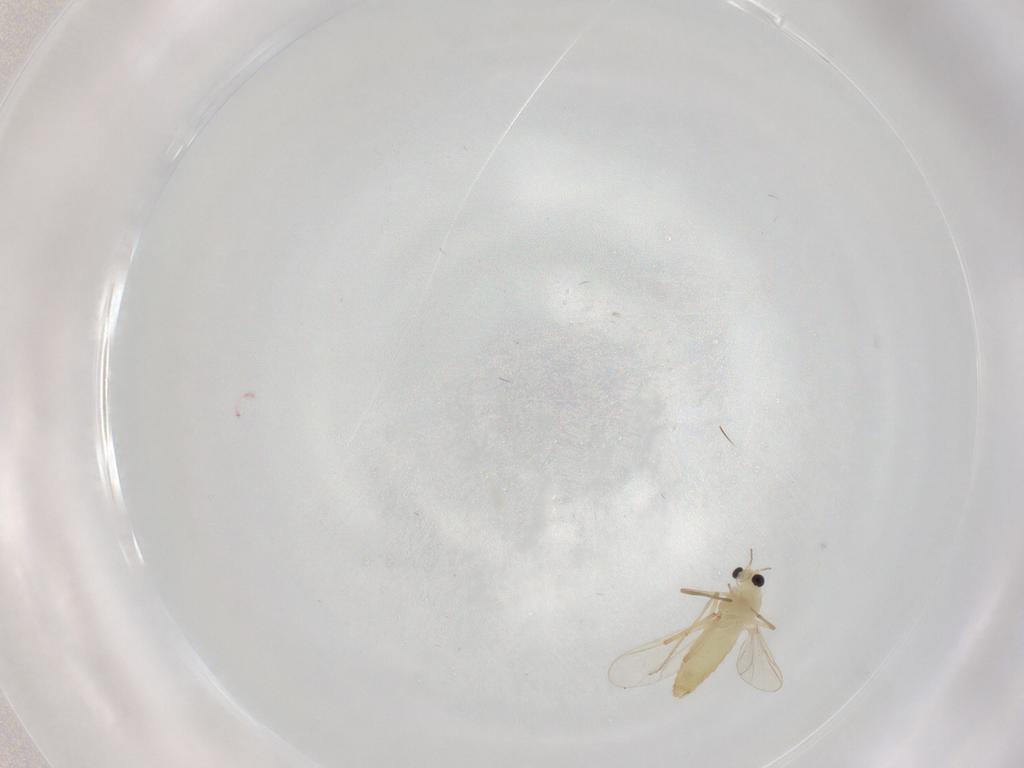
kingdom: Animalia
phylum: Arthropoda
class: Insecta
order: Diptera
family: Chironomidae
